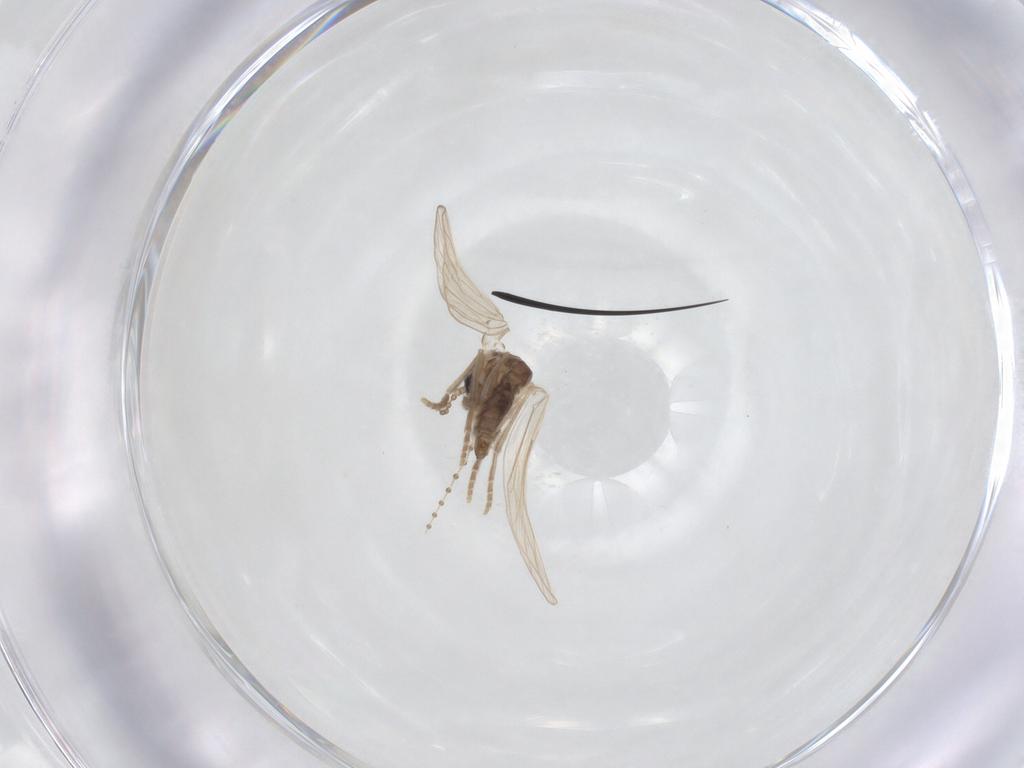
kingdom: Animalia
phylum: Arthropoda
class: Insecta
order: Diptera
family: Psychodidae
